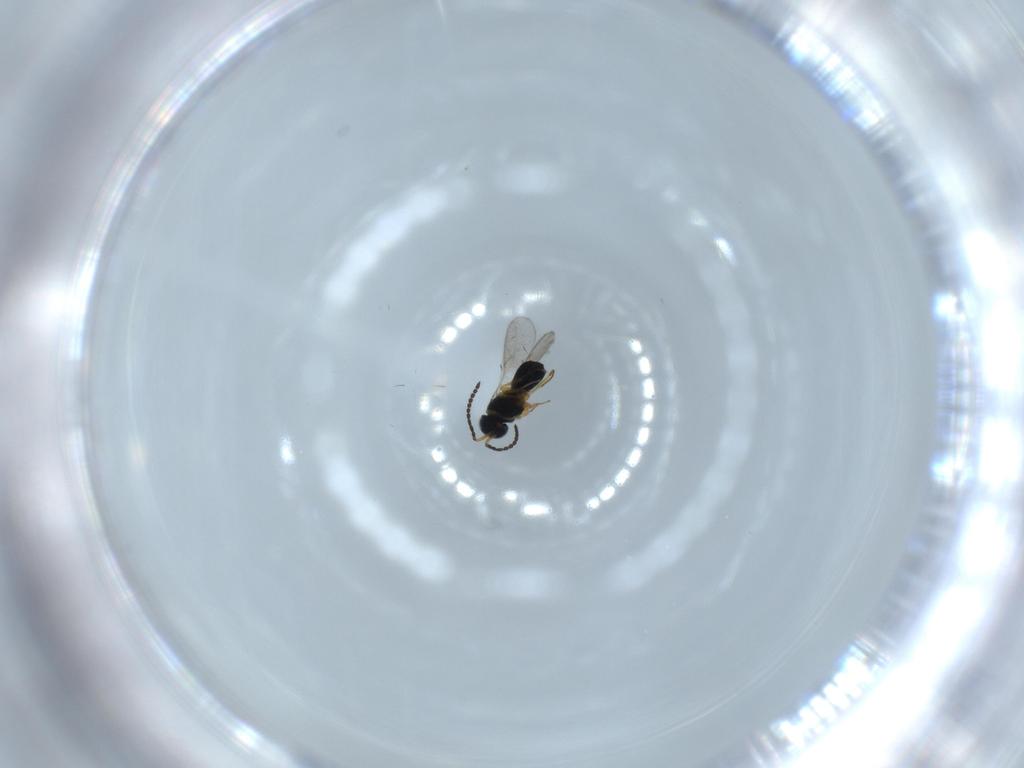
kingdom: Animalia
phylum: Arthropoda
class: Insecta
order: Hymenoptera
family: Scelionidae
